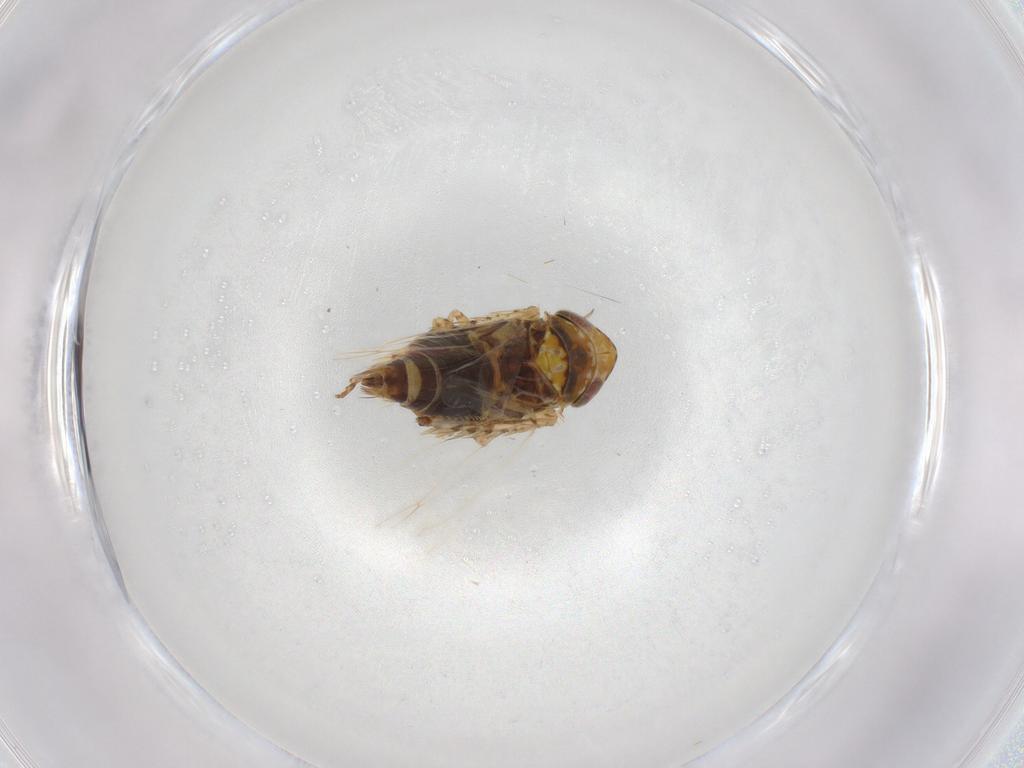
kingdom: Animalia
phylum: Arthropoda
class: Insecta
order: Hemiptera
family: Cicadellidae
